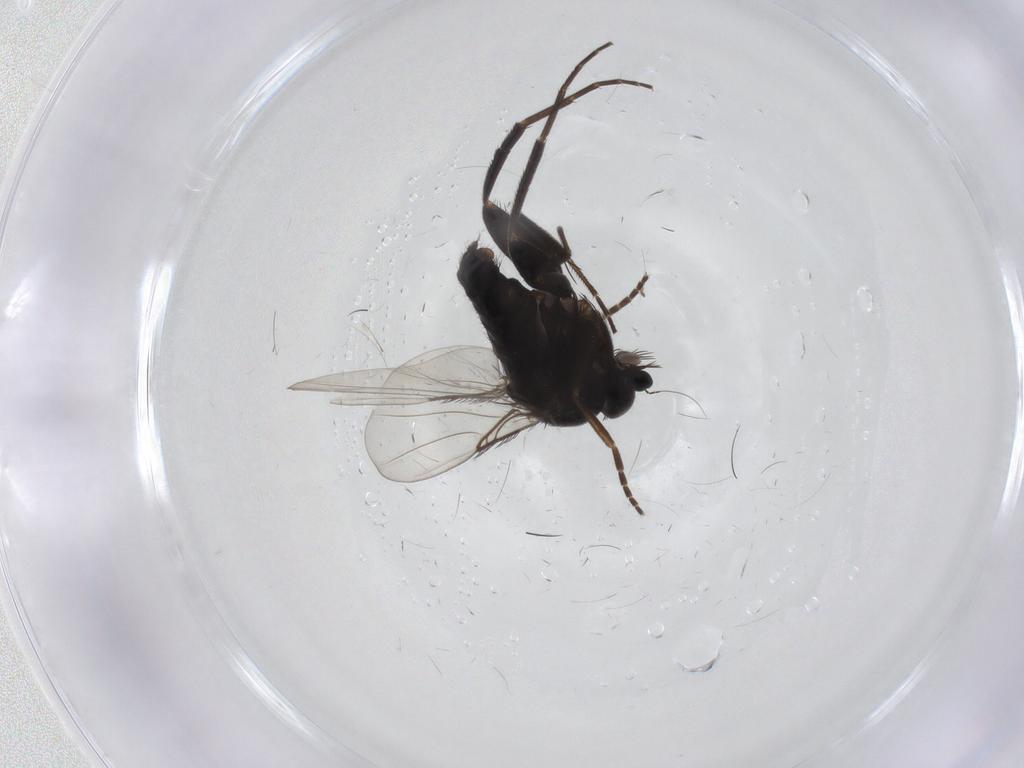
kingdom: Animalia
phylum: Arthropoda
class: Insecta
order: Diptera
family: Phoridae
